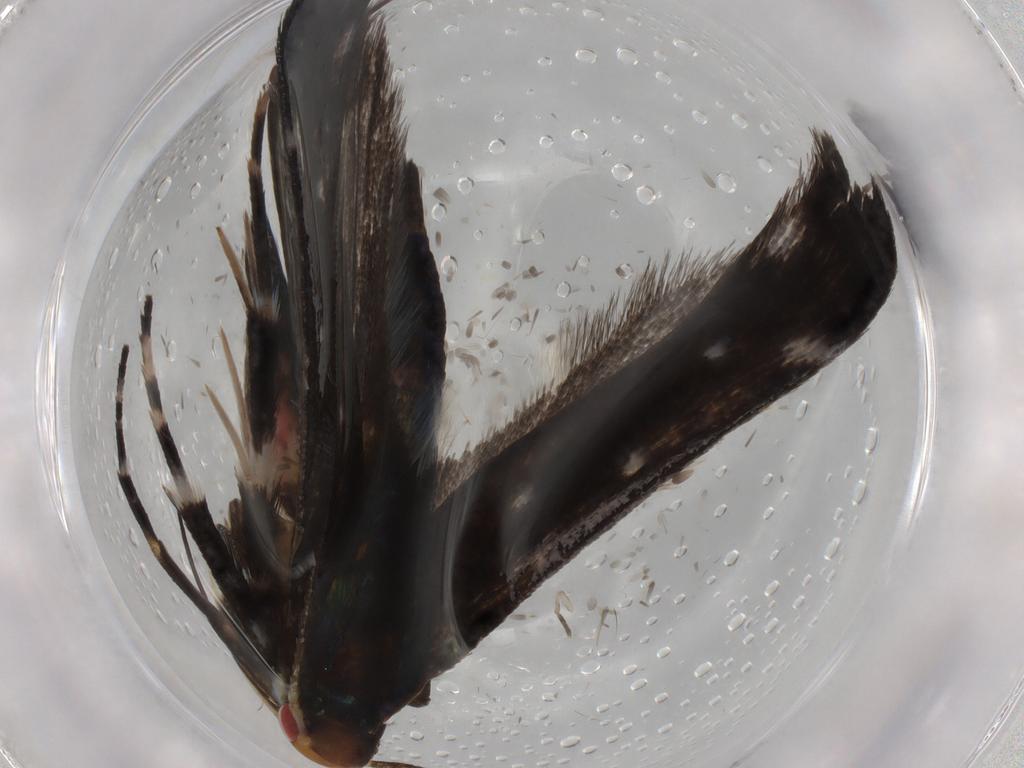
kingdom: Animalia
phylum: Arthropoda
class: Insecta
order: Lepidoptera
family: Gelechiidae
